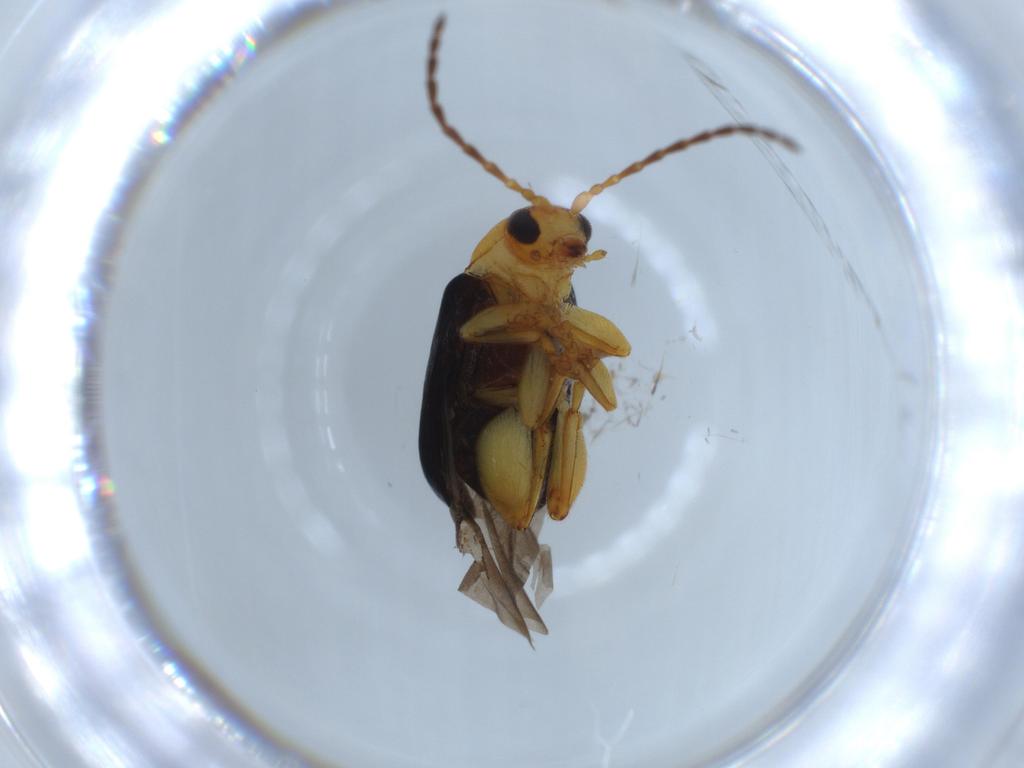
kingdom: Animalia
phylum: Arthropoda
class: Insecta
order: Coleoptera
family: Chrysomelidae
